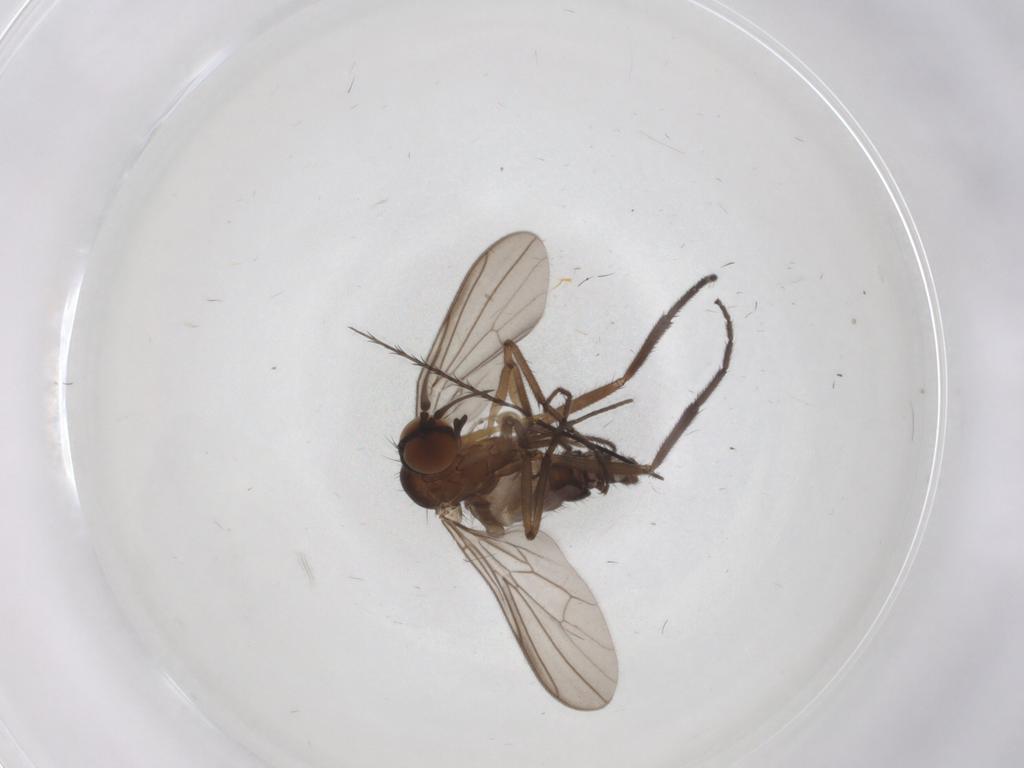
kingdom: Animalia
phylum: Arthropoda
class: Insecta
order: Diptera
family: Empididae
